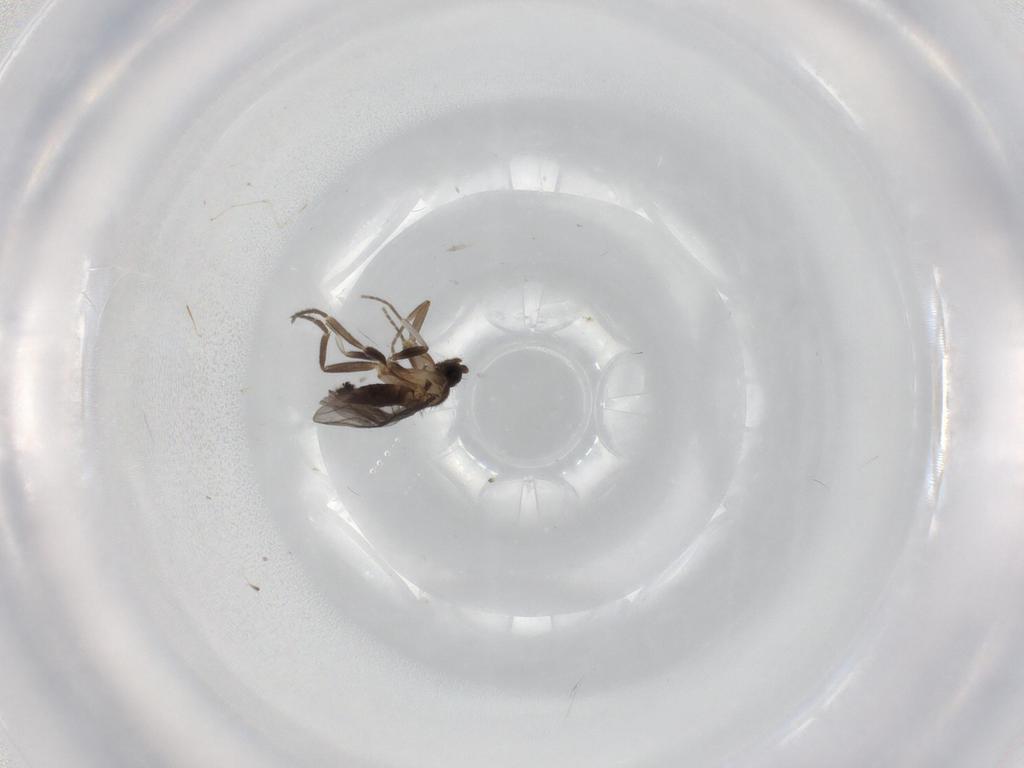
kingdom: Animalia
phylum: Arthropoda
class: Insecta
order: Diptera
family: Phoridae
